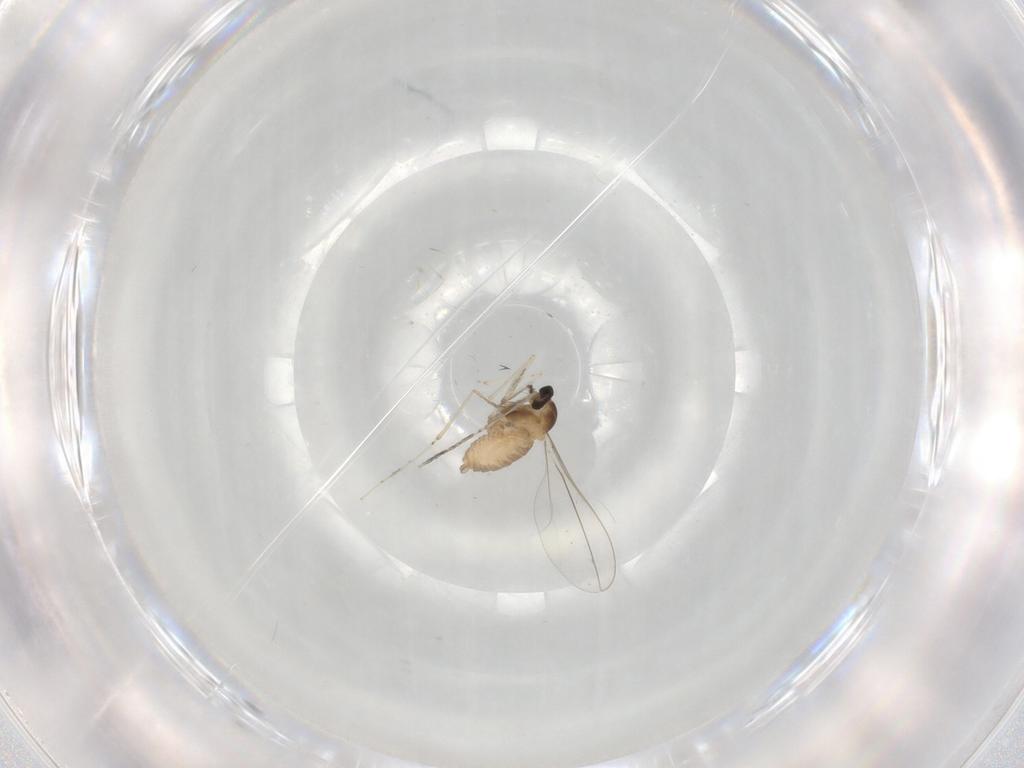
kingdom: Animalia
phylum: Arthropoda
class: Insecta
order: Diptera
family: Cecidomyiidae
